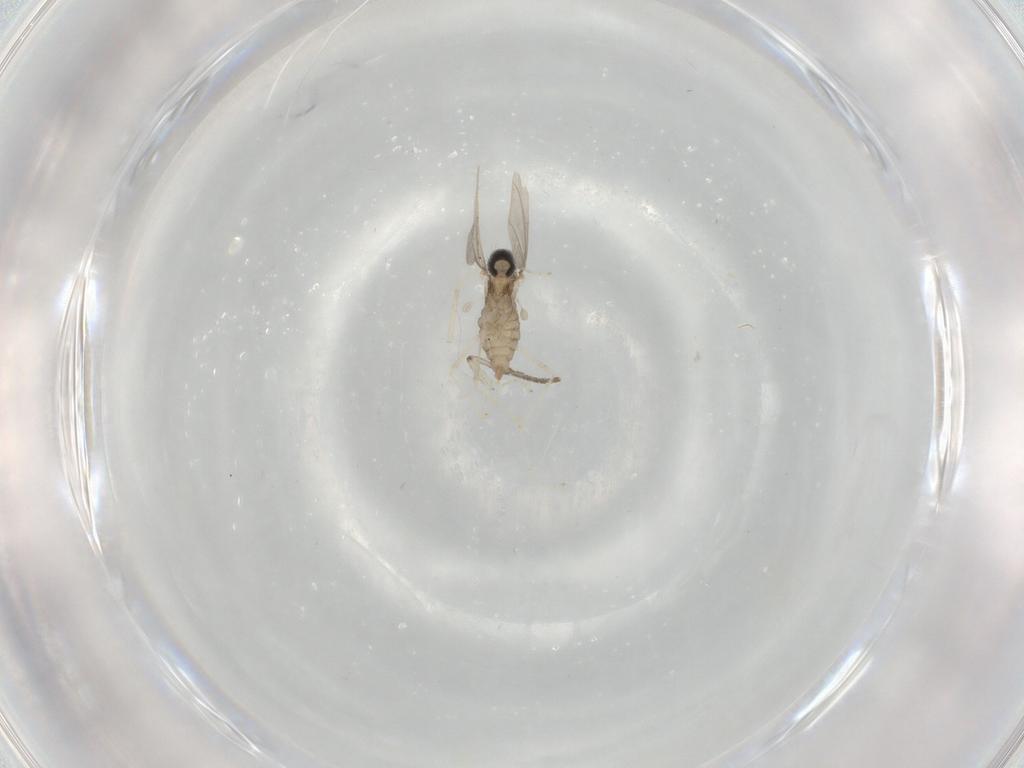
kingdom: Animalia
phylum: Arthropoda
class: Insecta
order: Diptera
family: Cecidomyiidae
